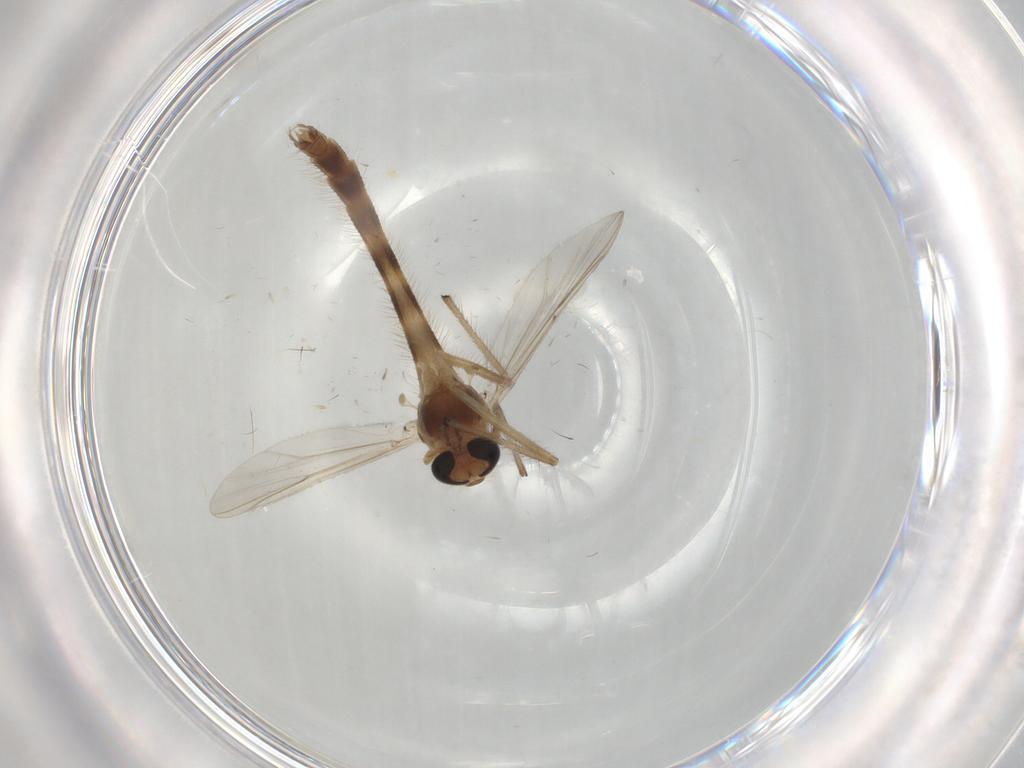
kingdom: Animalia
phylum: Arthropoda
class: Insecta
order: Diptera
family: Chironomidae
